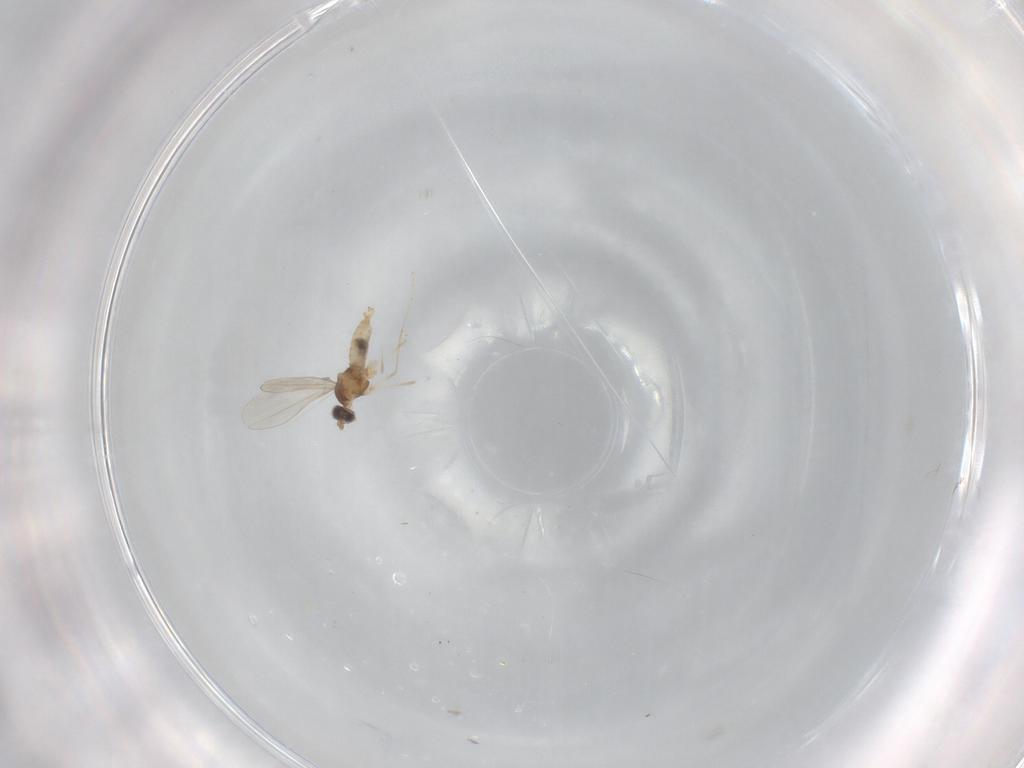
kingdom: Animalia
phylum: Arthropoda
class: Insecta
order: Diptera
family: Cecidomyiidae
